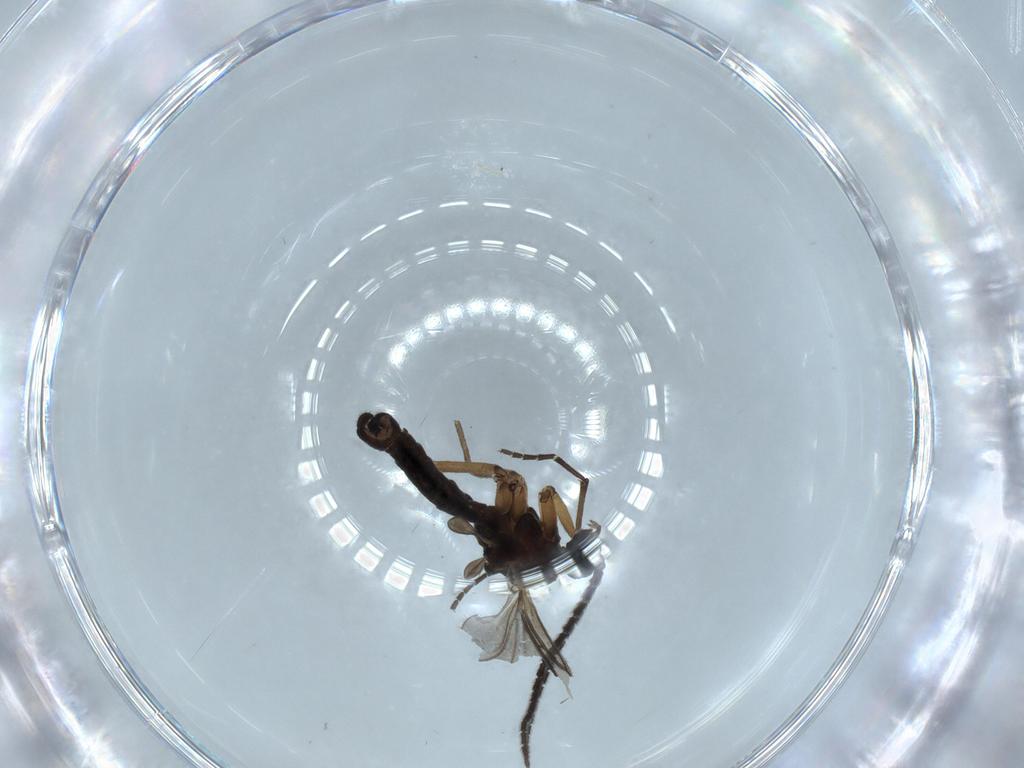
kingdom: Animalia
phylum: Arthropoda
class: Insecta
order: Diptera
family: Sciaridae
